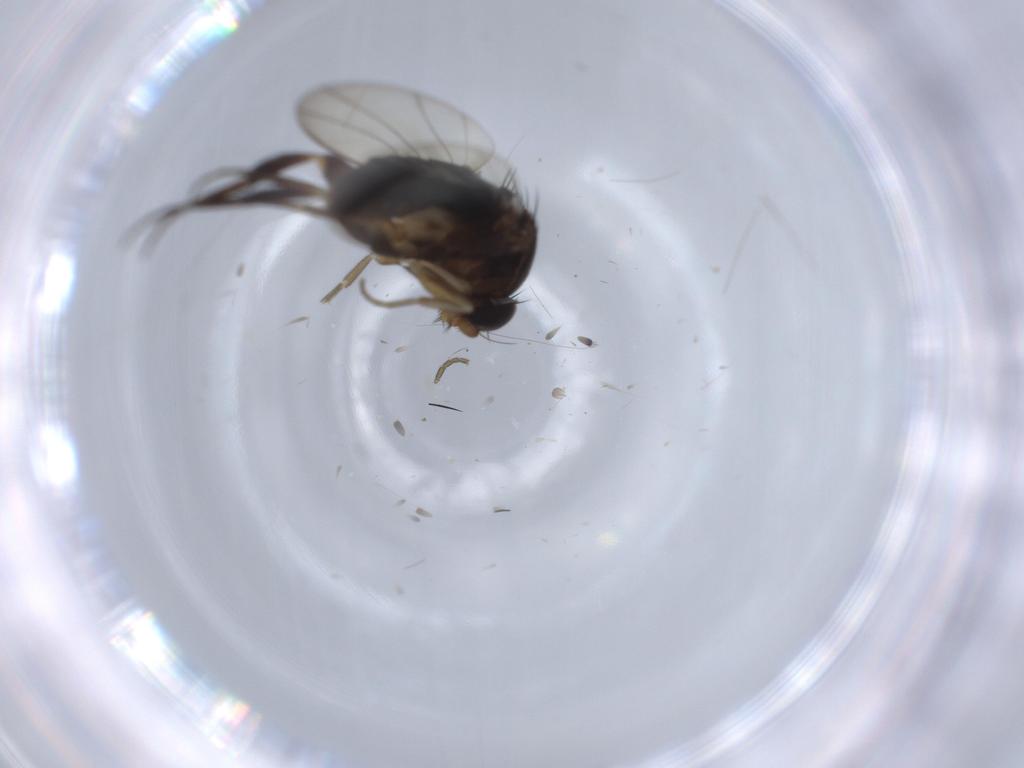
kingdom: Animalia
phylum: Arthropoda
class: Insecta
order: Diptera
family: Phoridae
